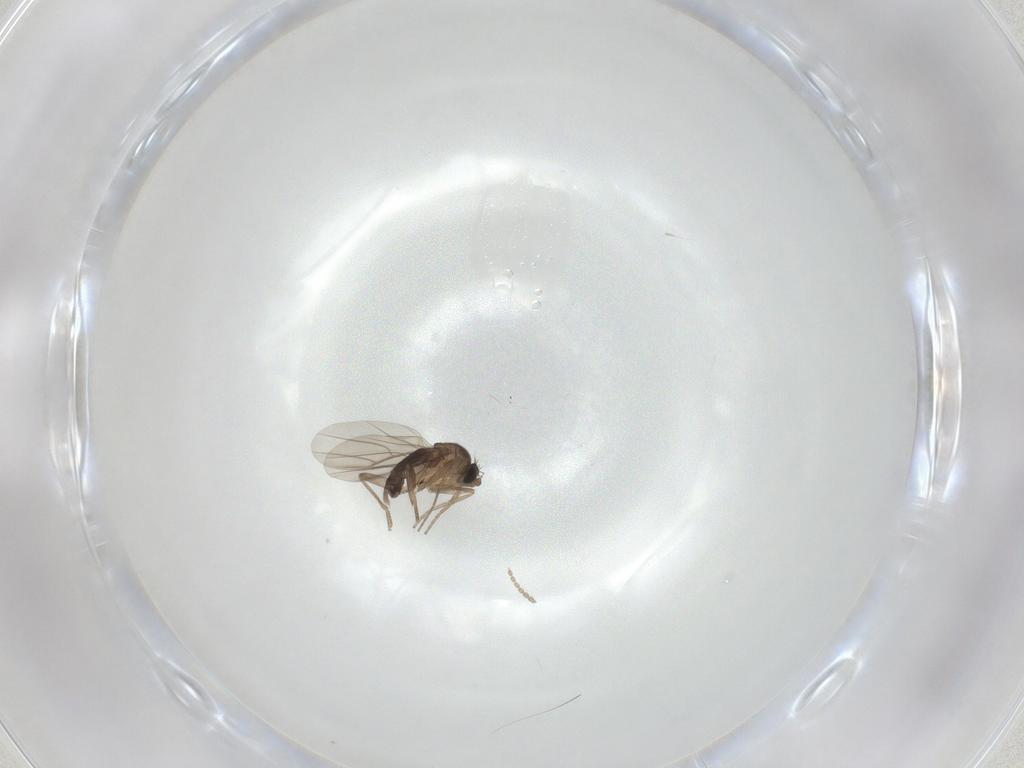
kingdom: Animalia
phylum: Arthropoda
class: Insecta
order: Diptera
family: Phoridae
